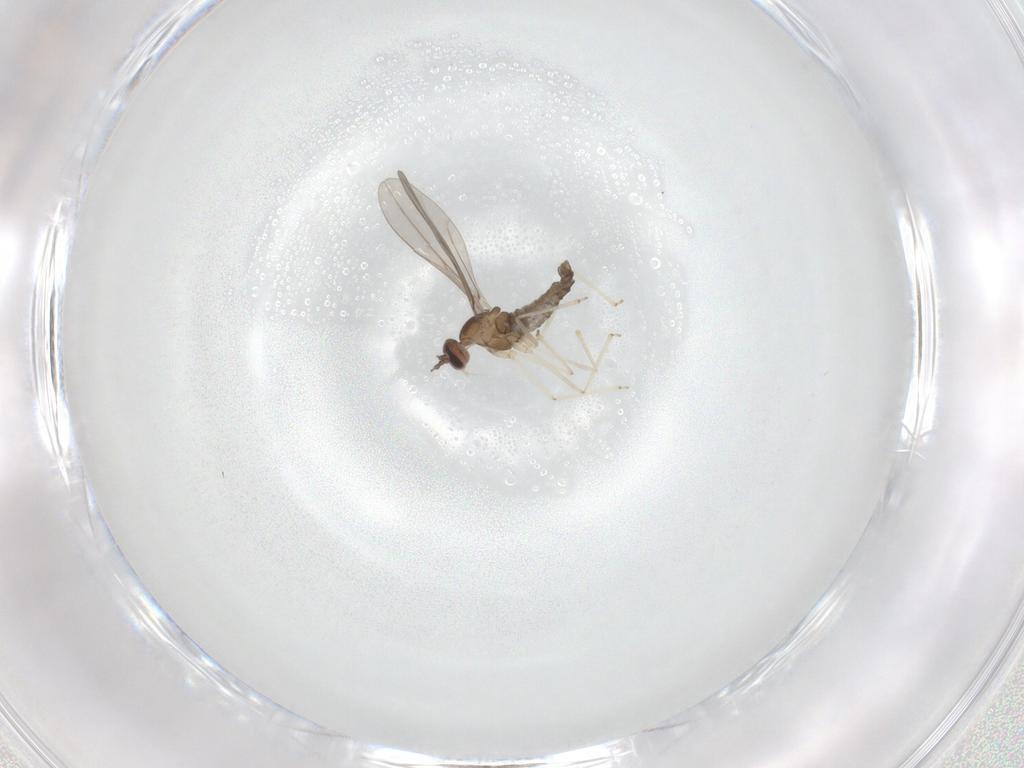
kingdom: Animalia
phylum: Arthropoda
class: Insecta
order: Diptera
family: Cecidomyiidae
